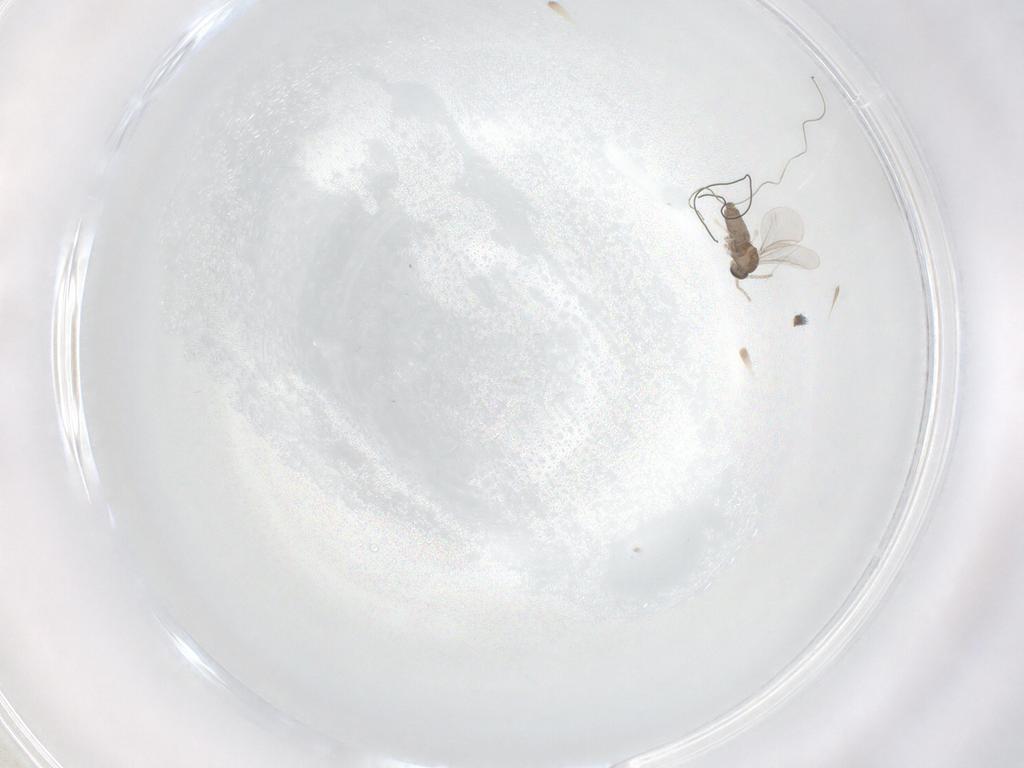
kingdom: Animalia
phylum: Arthropoda
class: Insecta
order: Diptera
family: Cecidomyiidae
